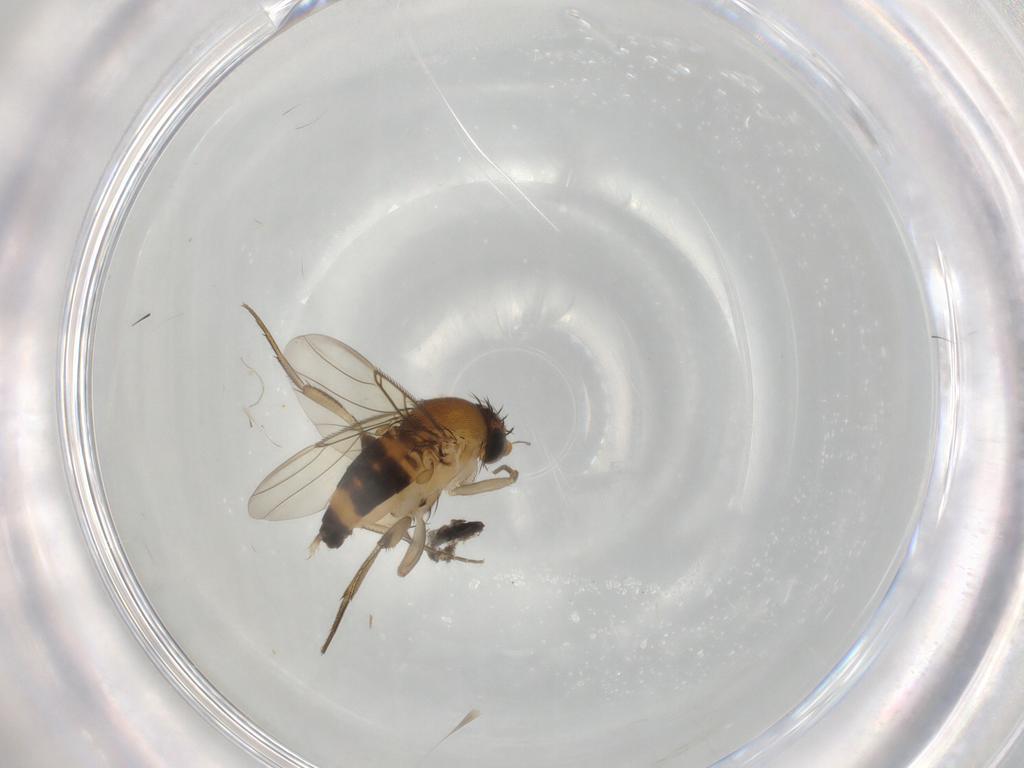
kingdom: Animalia
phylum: Arthropoda
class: Insecta
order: Diptera
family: Phoridae
